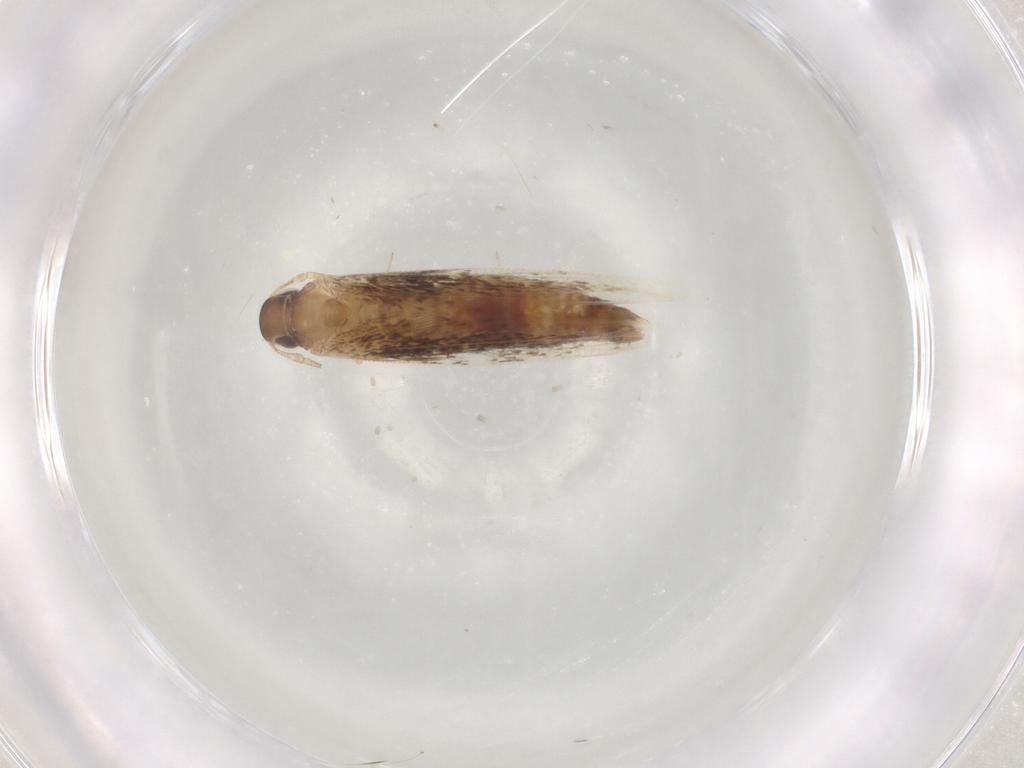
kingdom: Animalia
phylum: Arthropoda
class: Insecta
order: Lepidoptera
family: Cosmopterigidae
